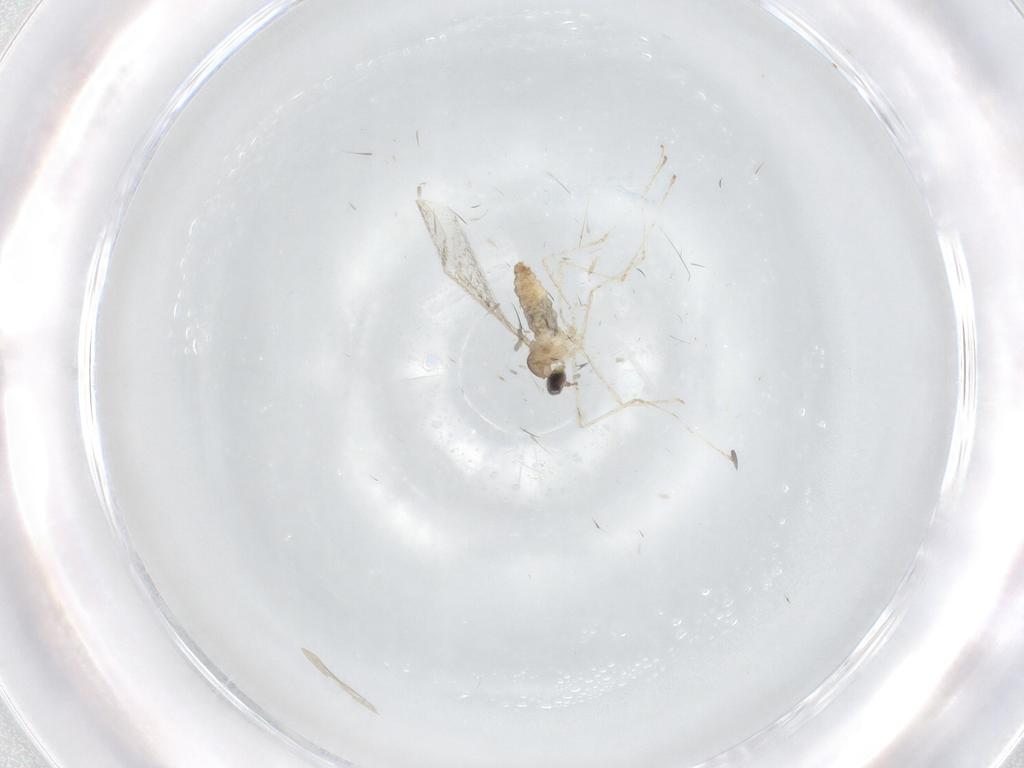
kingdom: Animalia
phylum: Arthropoda
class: Insecta
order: Diptera
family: Cecidomyiidae
